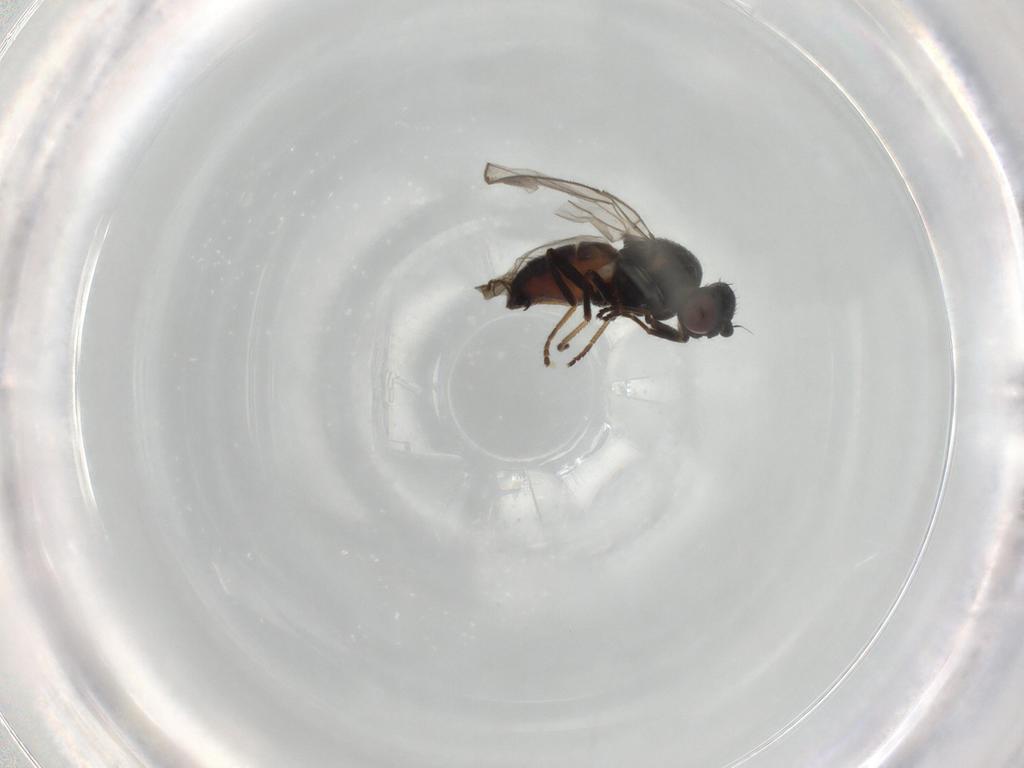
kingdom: Animalia
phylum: Arthropoda
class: Insecta
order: Diptera
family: Chloropidae
